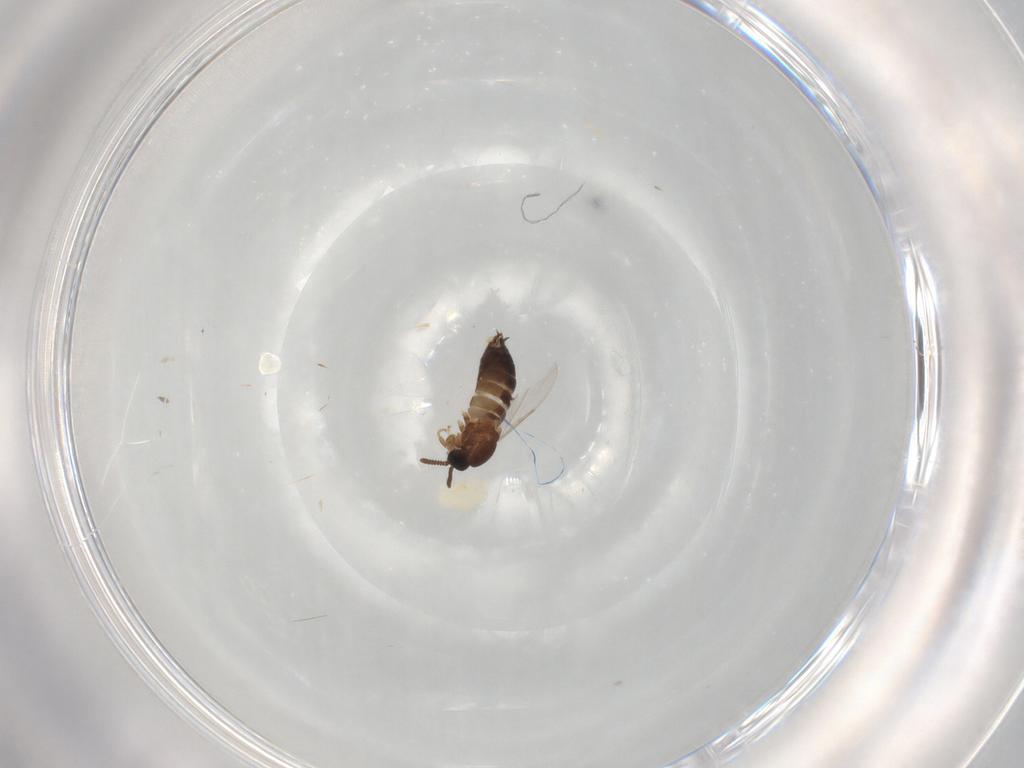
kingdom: Animalia
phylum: Arthropoda
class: Insecta
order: Diptera
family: Scatopsidae
